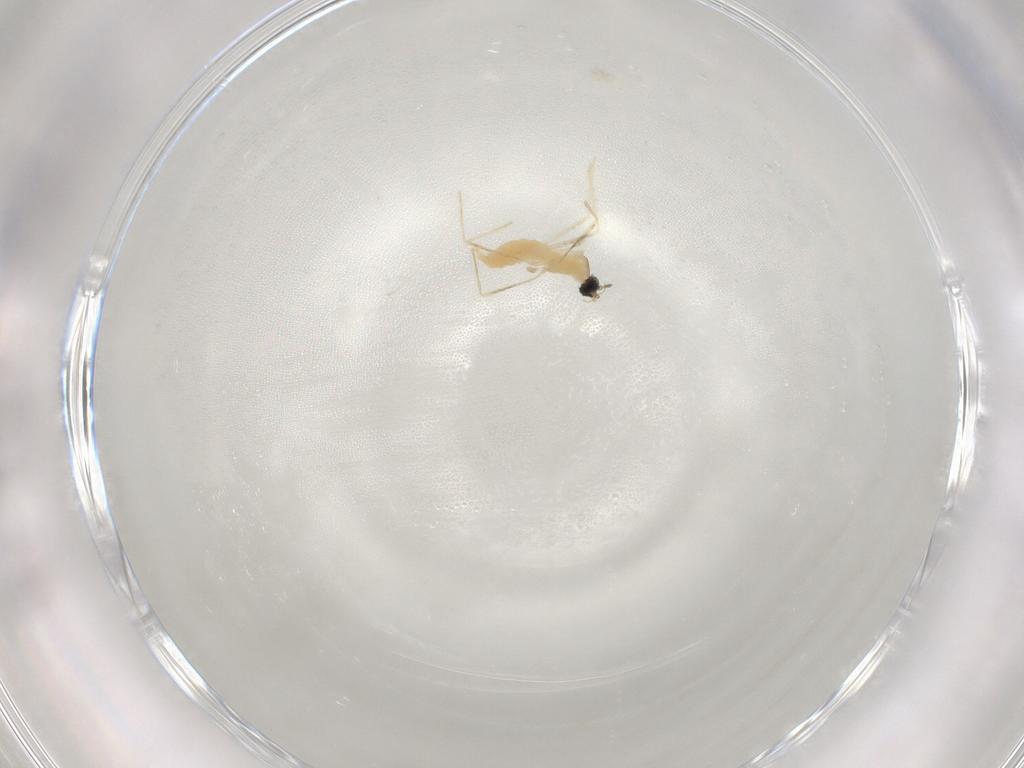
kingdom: Animalia
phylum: Arthropoda
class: Insecta
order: Diptera
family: Cecidomyiidae
